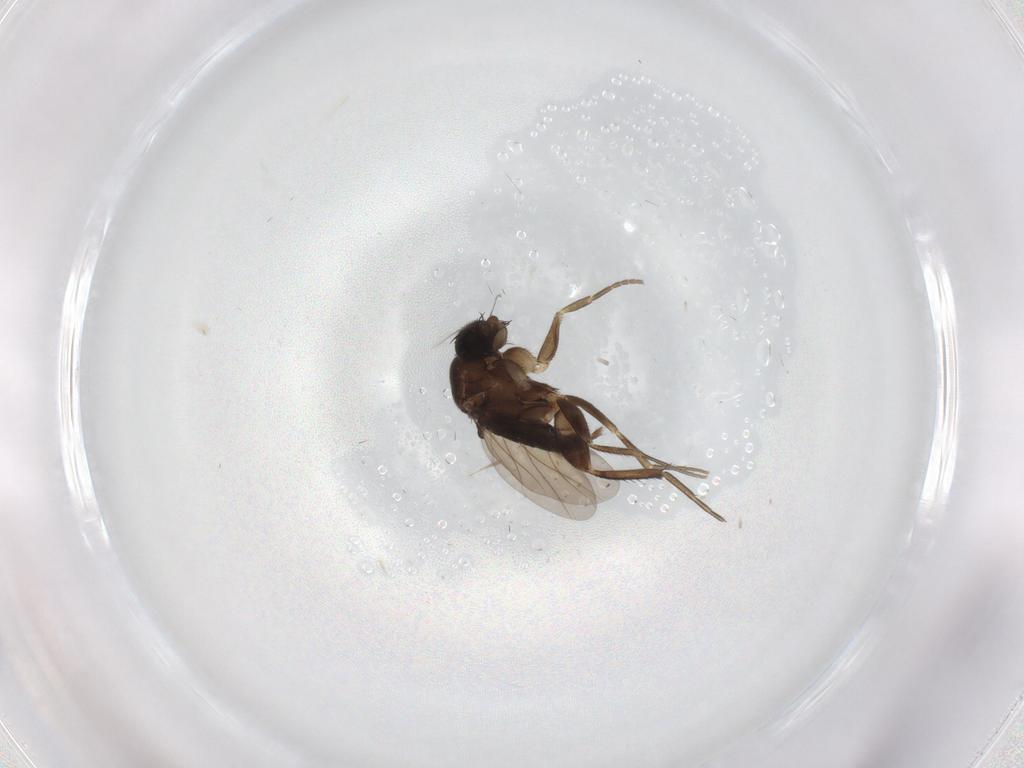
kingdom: Animalia
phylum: Arthropoda
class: Insecta
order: Diptera
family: Phoridae
